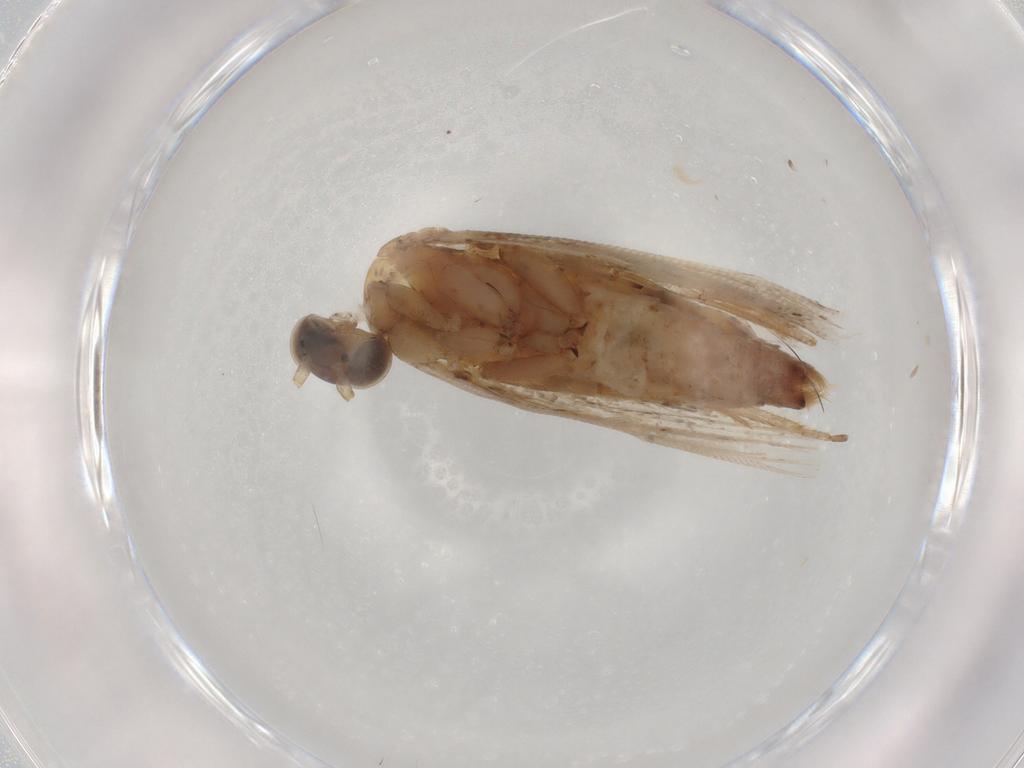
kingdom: Animalia
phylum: Arthropoda
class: Insecta
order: Lepidoptera
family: Tortricidae
